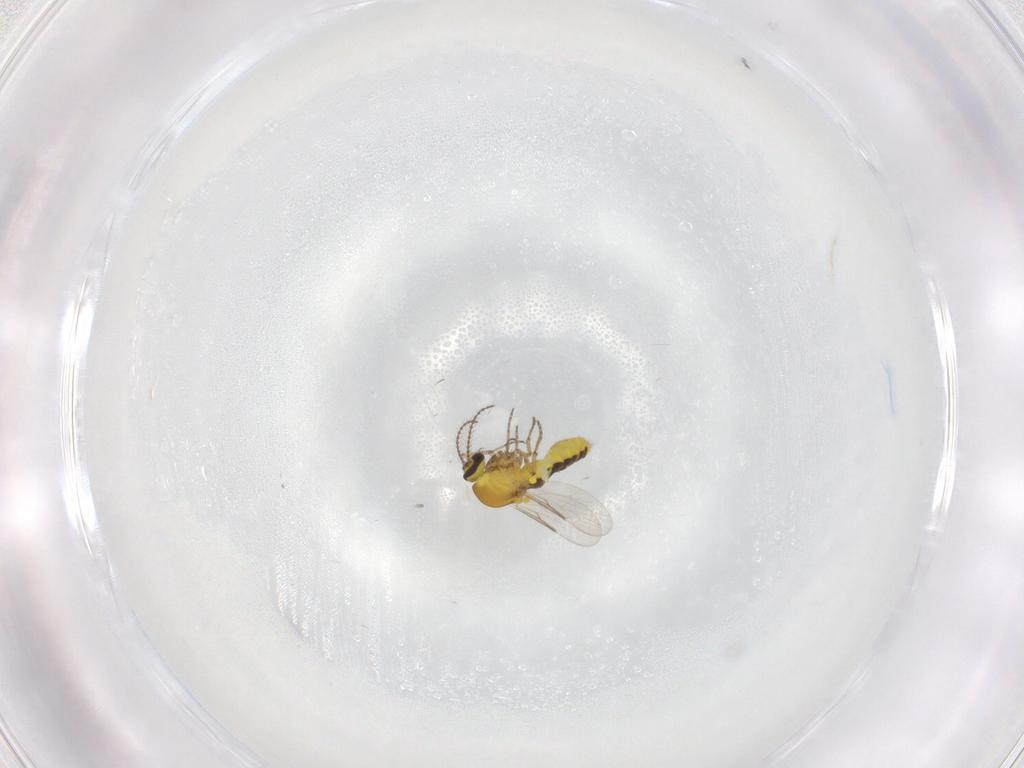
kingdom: Animalia
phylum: Arthropoda
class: Insecta
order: Diptera
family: Ceratopogonidae
